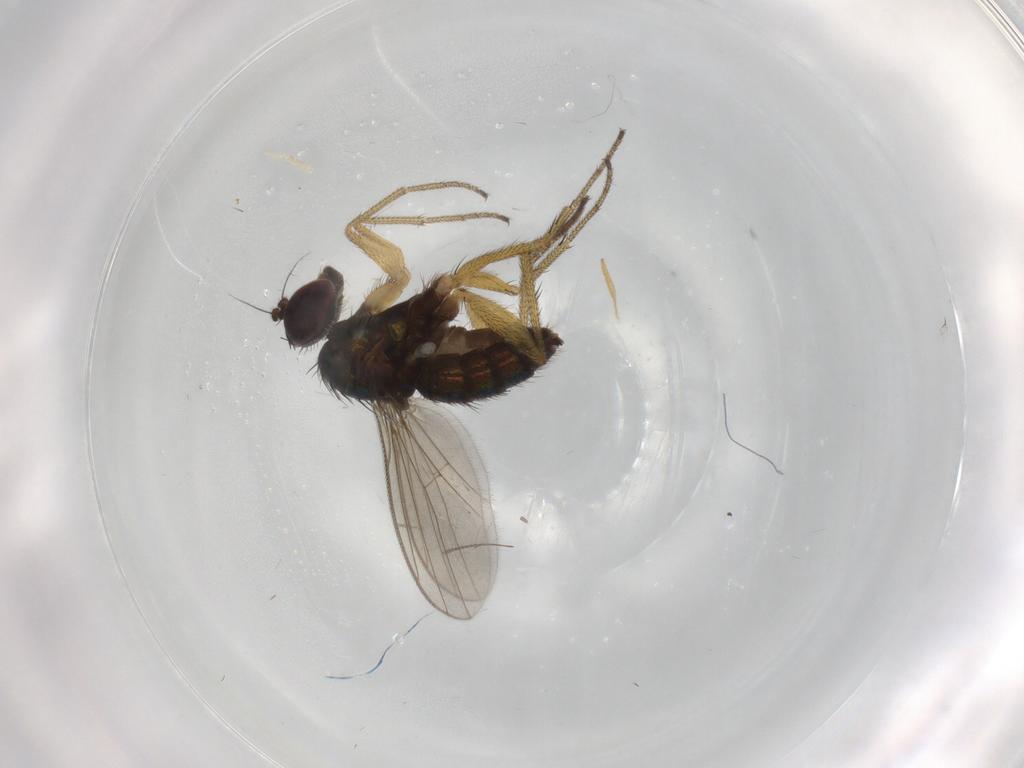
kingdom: Animalia
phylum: Arthropoda
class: Insecta
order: Diptera
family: Dolichopodidae
